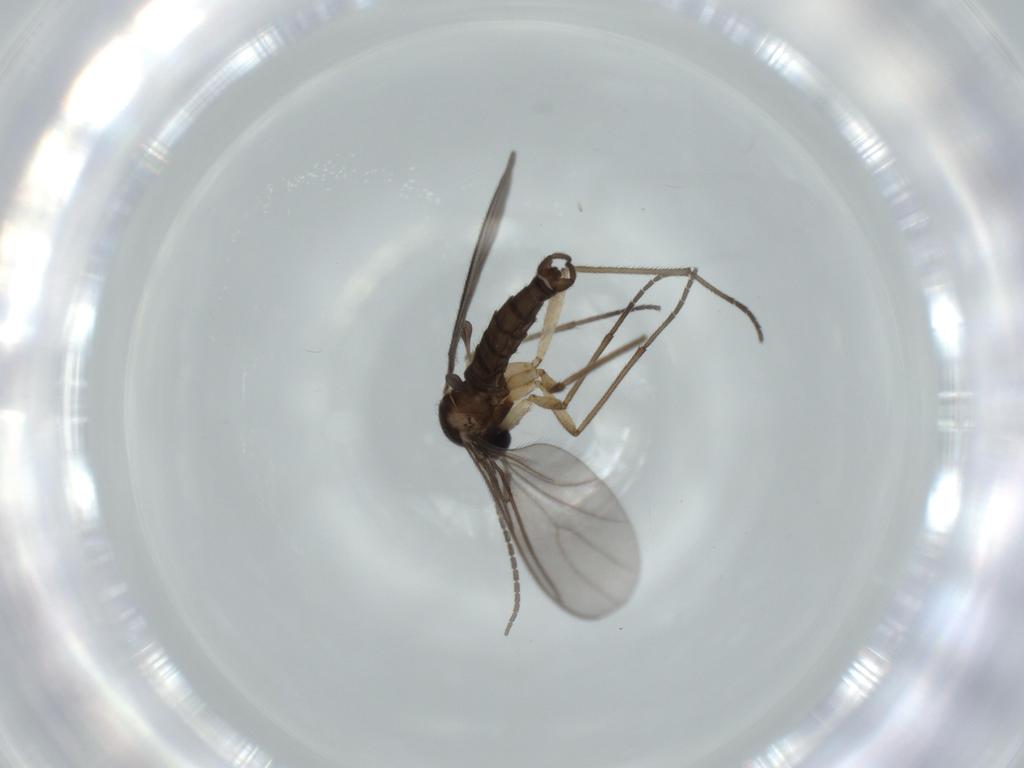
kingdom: Animalia
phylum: Arthropoda
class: Insecta
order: Diptera
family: Sciaridae
